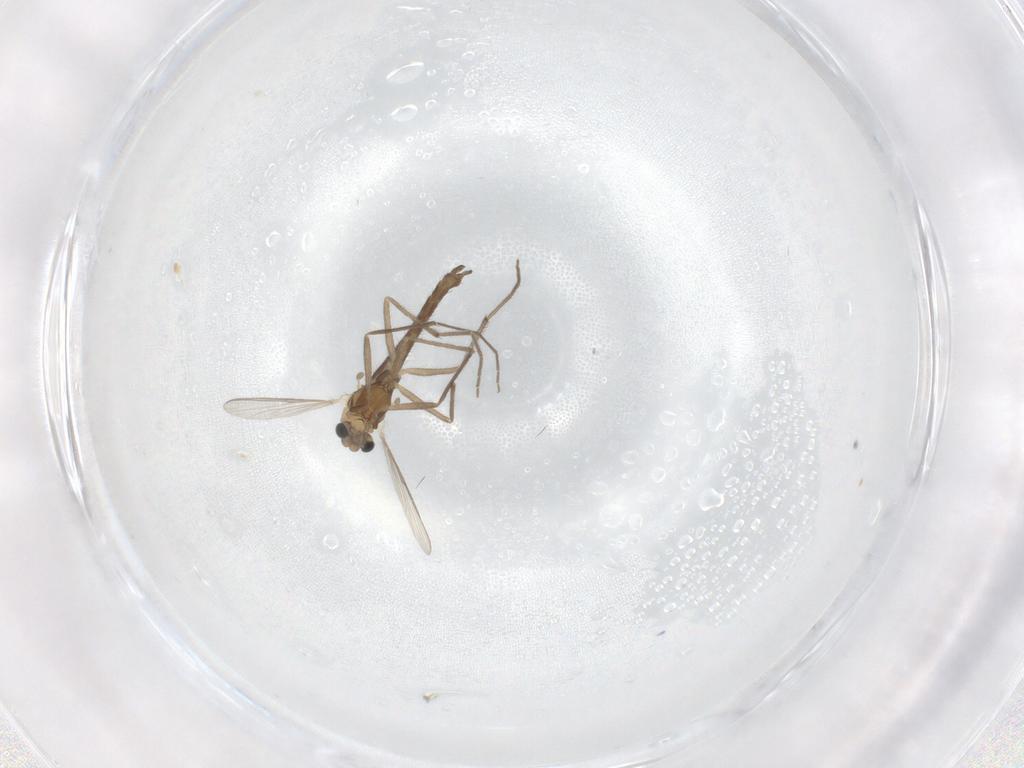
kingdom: Animalia
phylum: Arthropoda
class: Insecta
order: Diptera
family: Chironomidae
